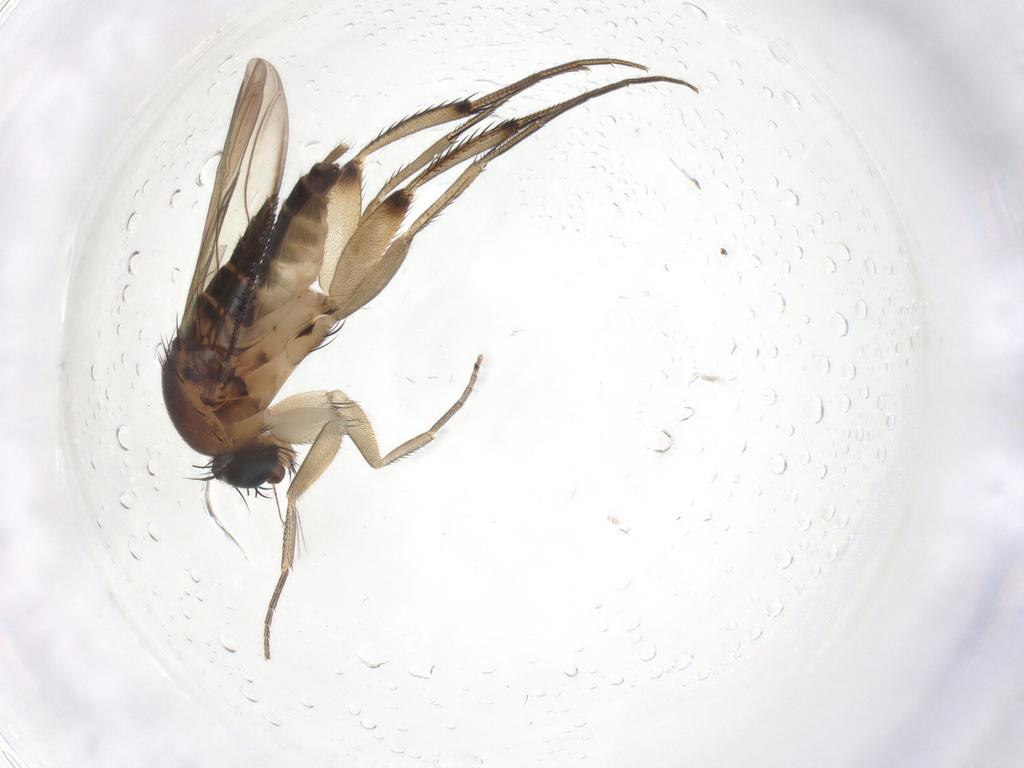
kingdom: Animalia
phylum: Arthropoda
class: Insecta
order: Diptera
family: Phoridae
